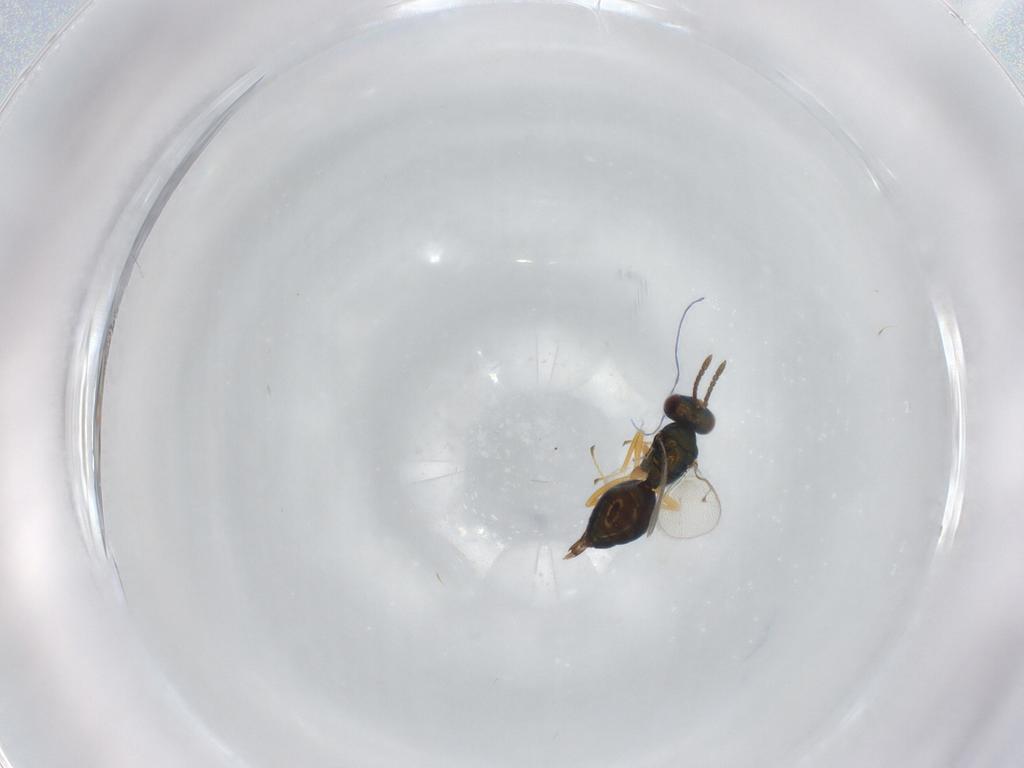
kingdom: Animalia
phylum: Arthropoda
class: Insecta
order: Hymenoptera
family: Pteromalidae
